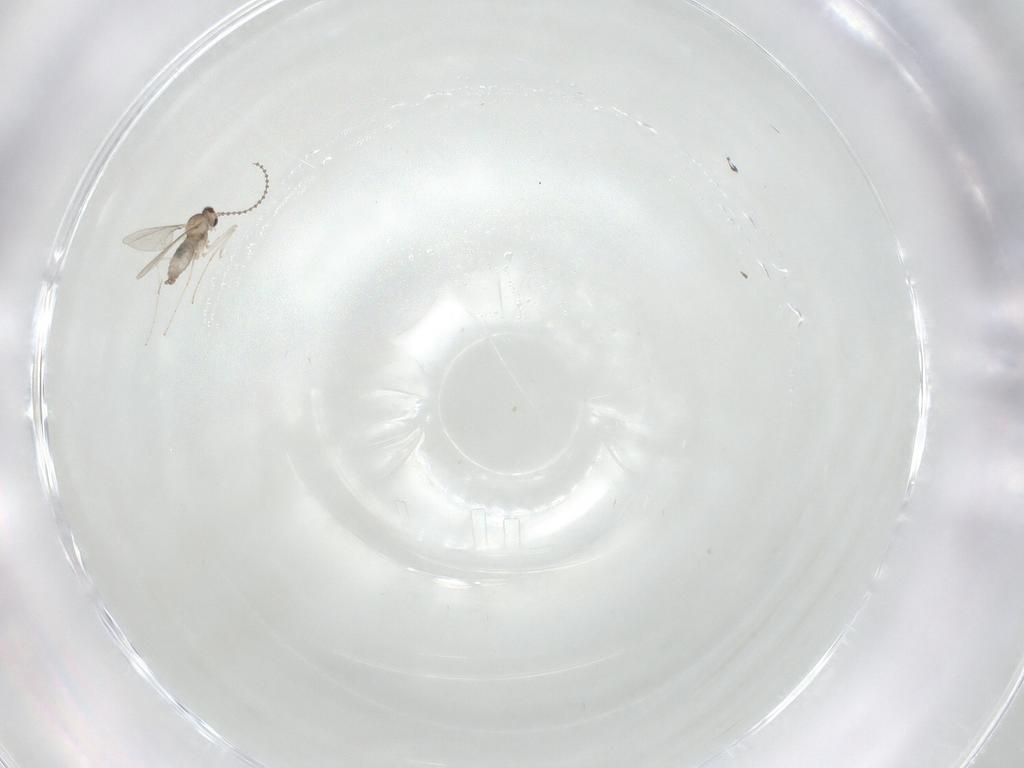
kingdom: Animalia
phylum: Arthropoda
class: Insecta
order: Diptera
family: Cecidomyiidae
